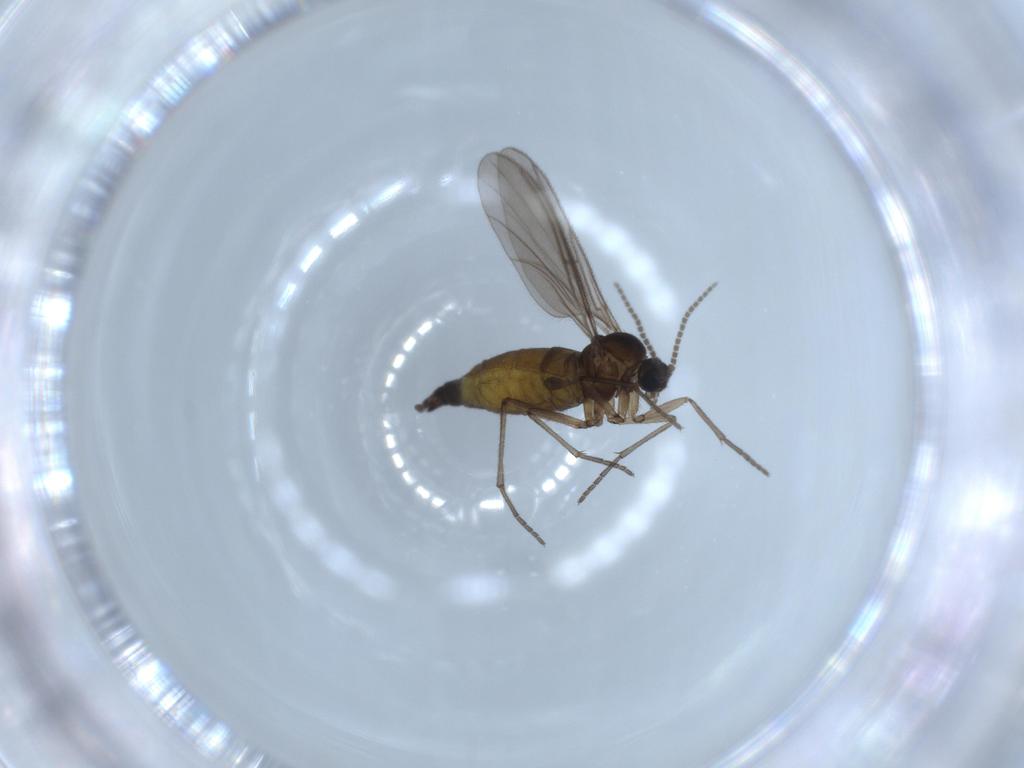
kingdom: Animalia
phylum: Arthropoda
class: Insecta
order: Diptera
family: Sciaridae
